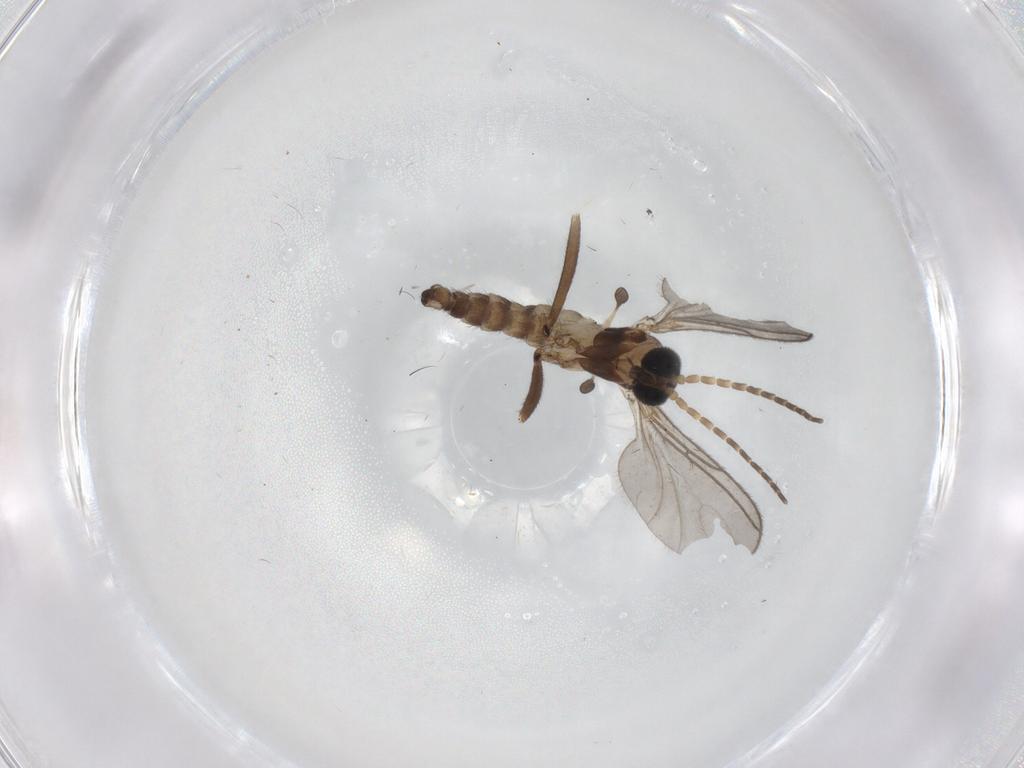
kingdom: Animalia
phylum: Arthropoda
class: Insecta
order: Diptera
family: Sciaridae
